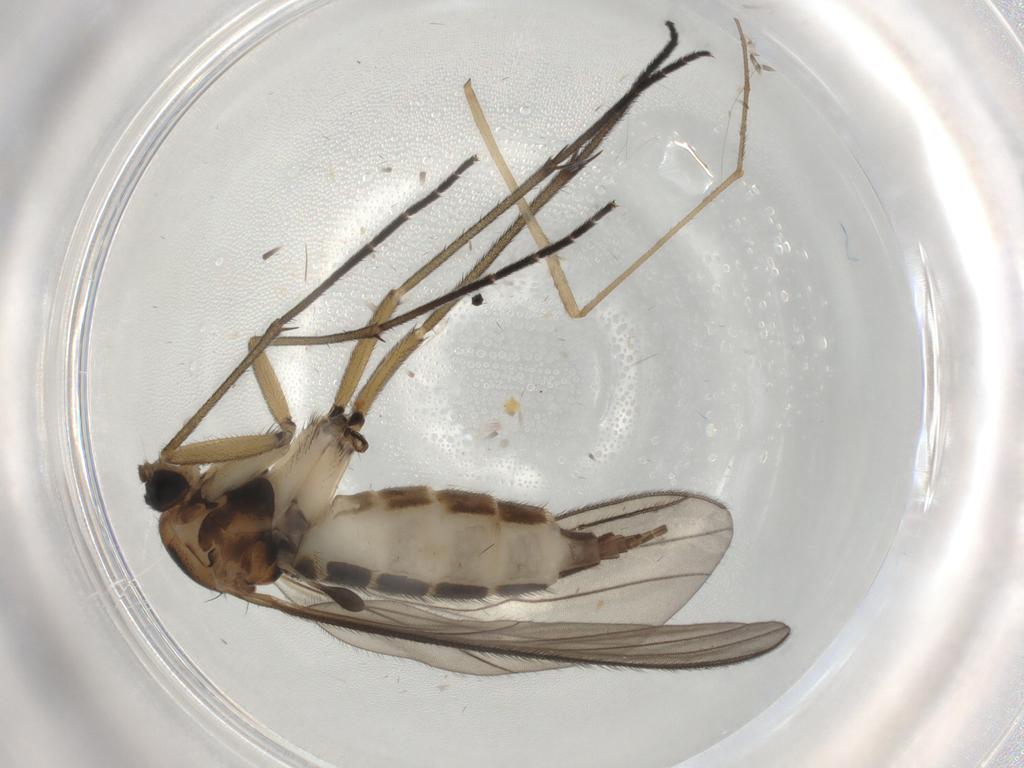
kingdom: Animalia
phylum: Arthropoda
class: Insecta
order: Diptera
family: Sciaridae
